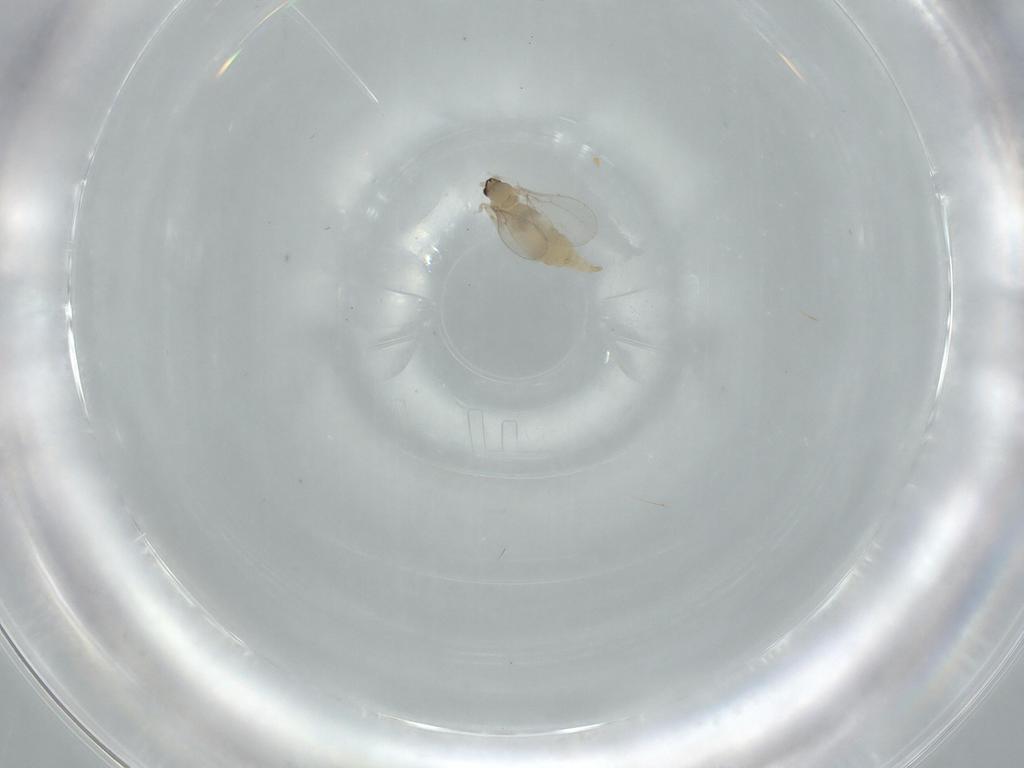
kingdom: Animalia
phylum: Arthropoda
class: Insecta
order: Diptera
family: Cecidomyiidae
